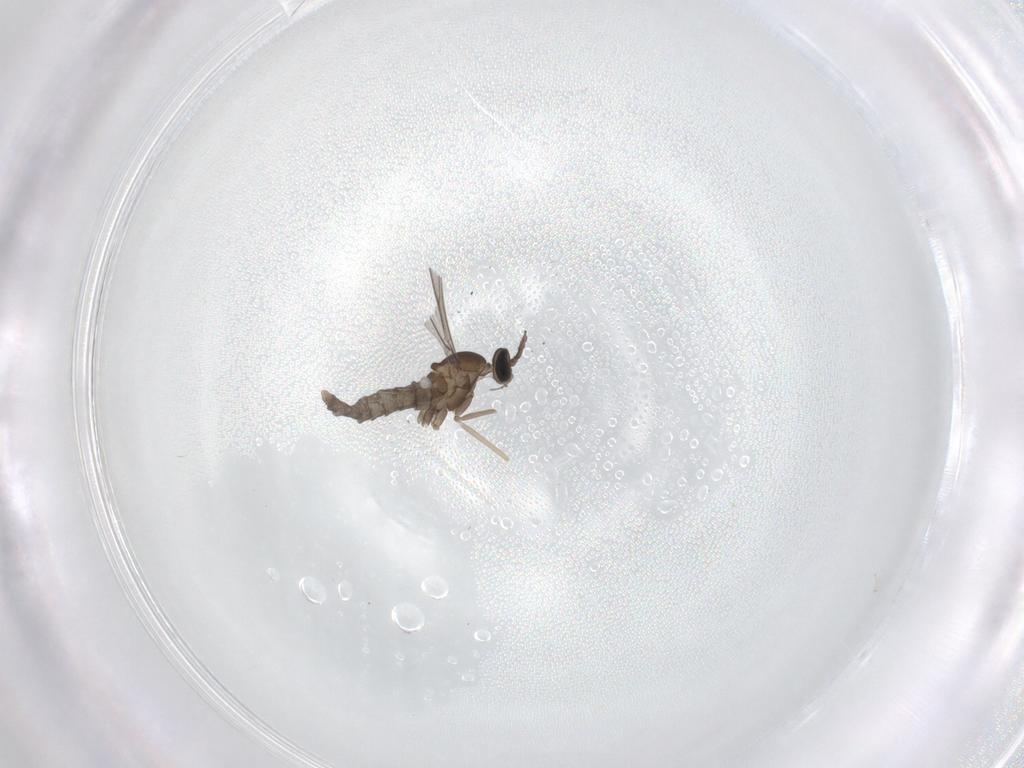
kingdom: Animalia
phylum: Arthropoda
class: Insecta
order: Diptera
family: Cecidomyiidae
